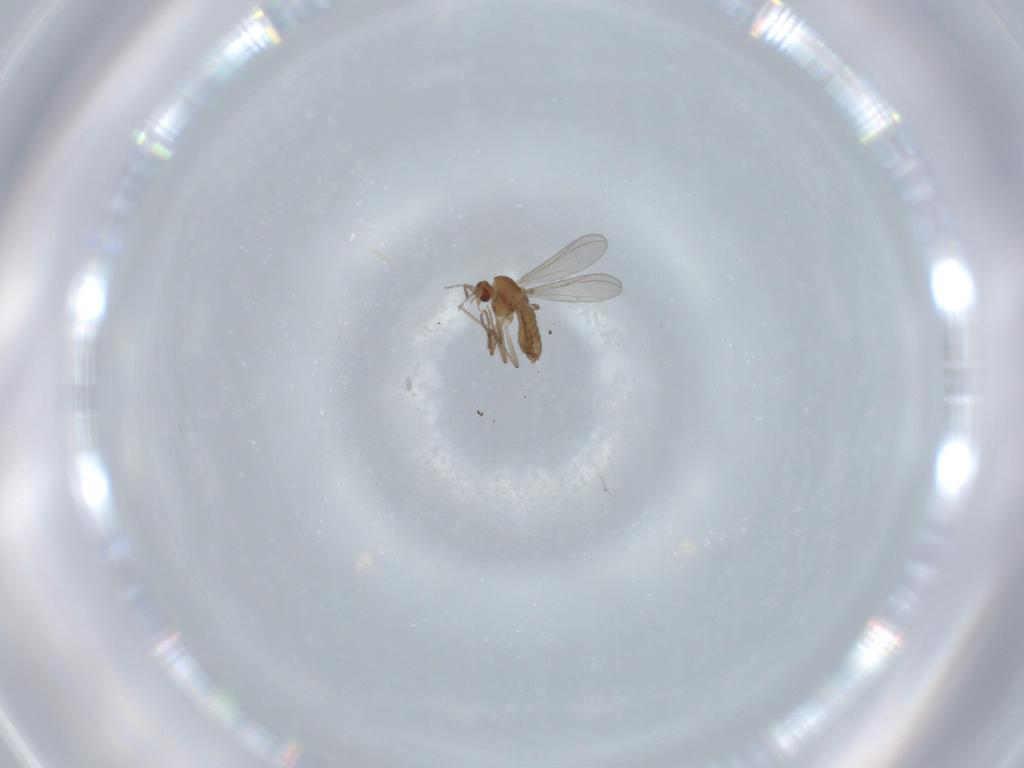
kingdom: Animalia
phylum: Arthropoda
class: Insecta
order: Diptera
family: Chironomidae
